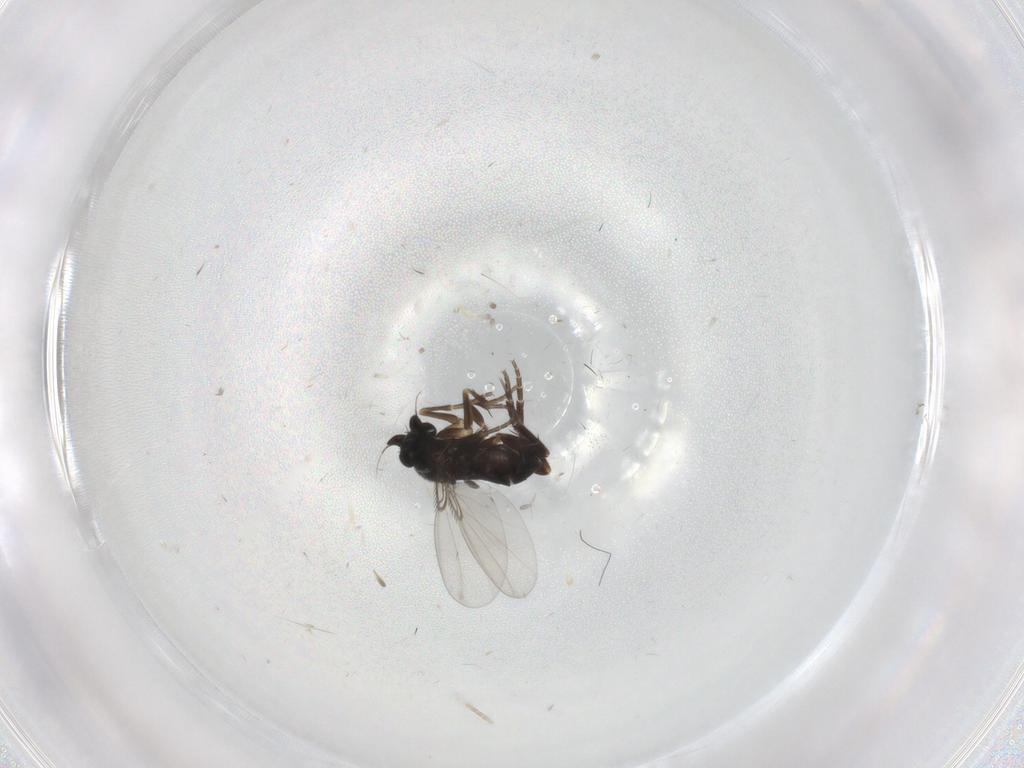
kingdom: Animalia
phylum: Arthropoda
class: Insecta
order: Diptera
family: Phoridae
